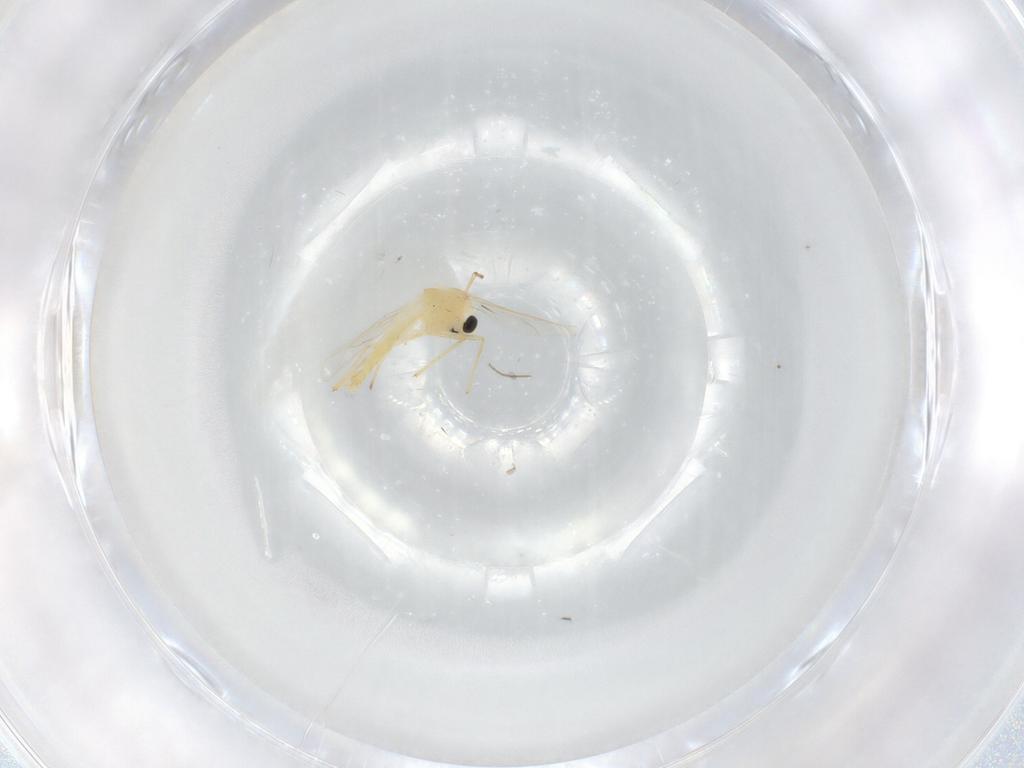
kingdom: Animalia
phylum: Arthropoda
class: Insecta
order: Diptera
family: Chironomidae
